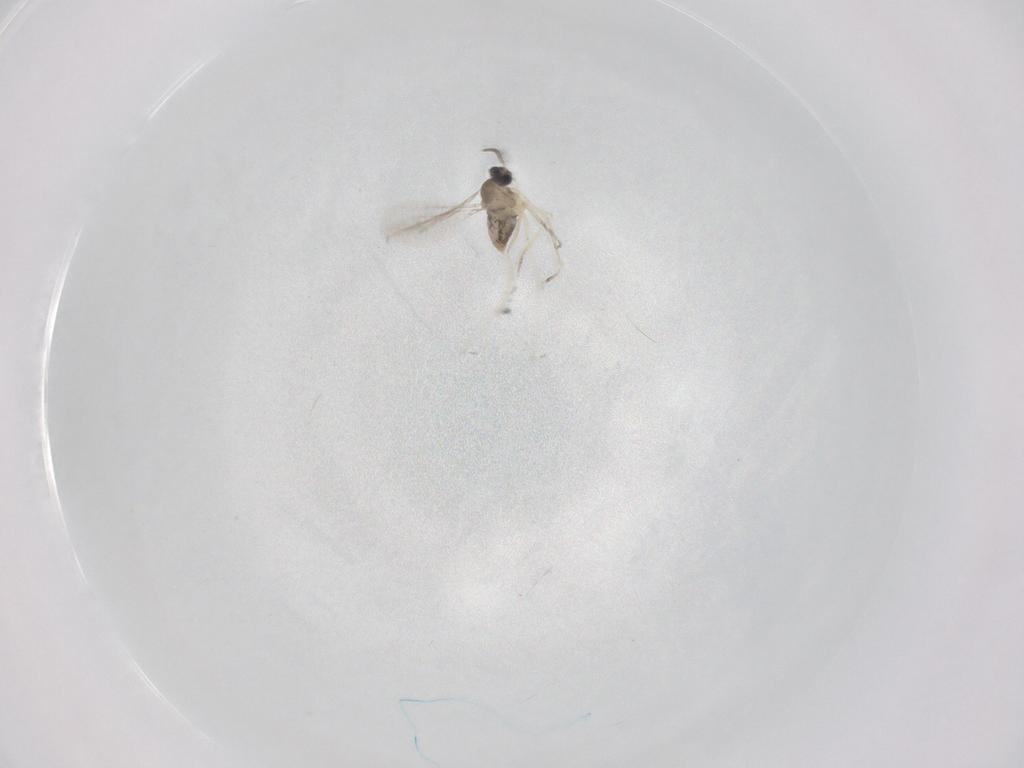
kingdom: Animalia
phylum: Arthropoda
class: Insecta
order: Diptera
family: Cecidomyiidae
